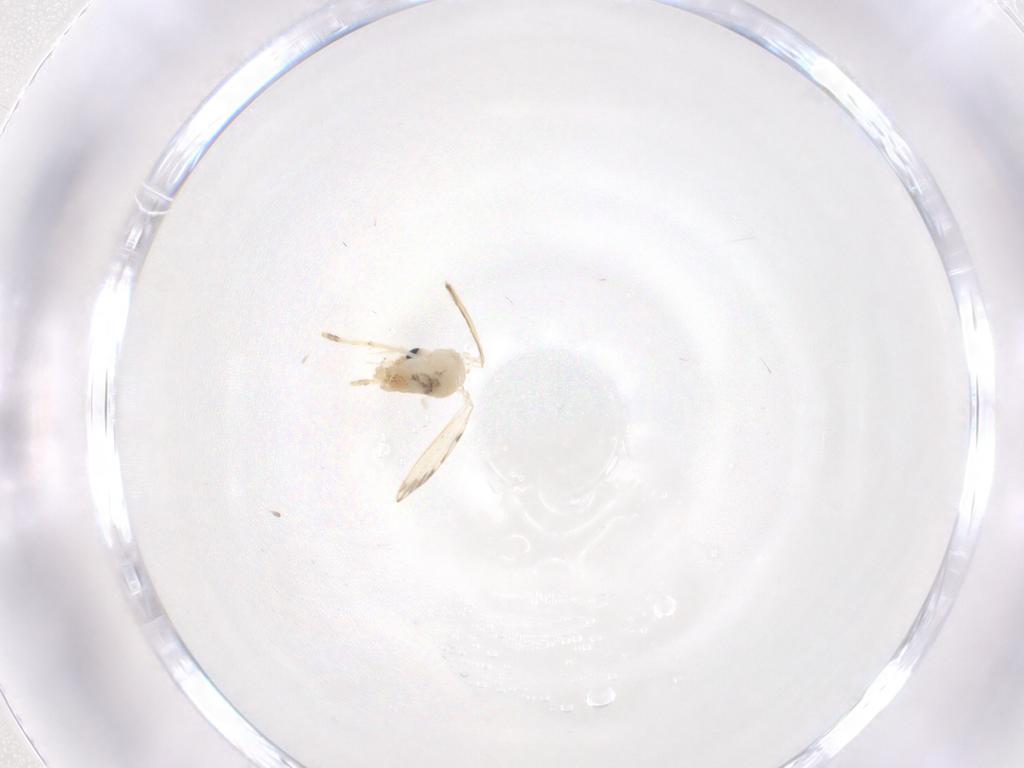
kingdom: Animalia
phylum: Arthropoda
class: Insecta
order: Diptera
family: Psychodidae
